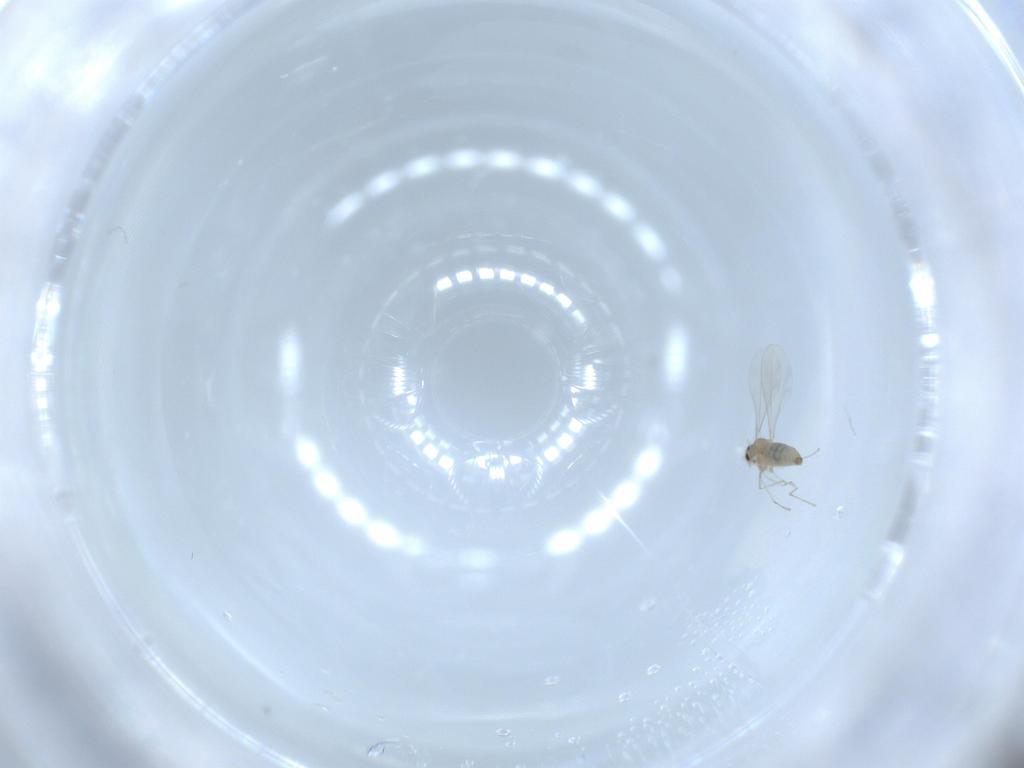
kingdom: Animalia
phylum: Arthropoda
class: Insecta
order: Diptera
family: Cecidomyiidae
